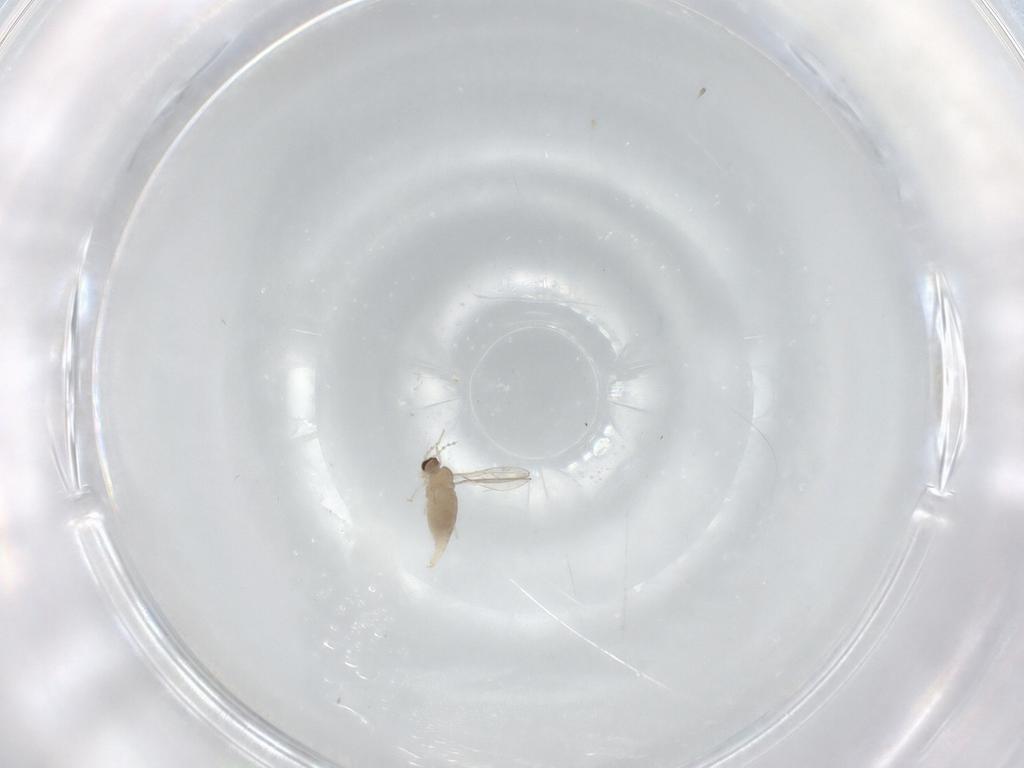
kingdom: Animalia
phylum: Arthropoda
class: Insecta
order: Diptera
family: Cecidomyiidae
